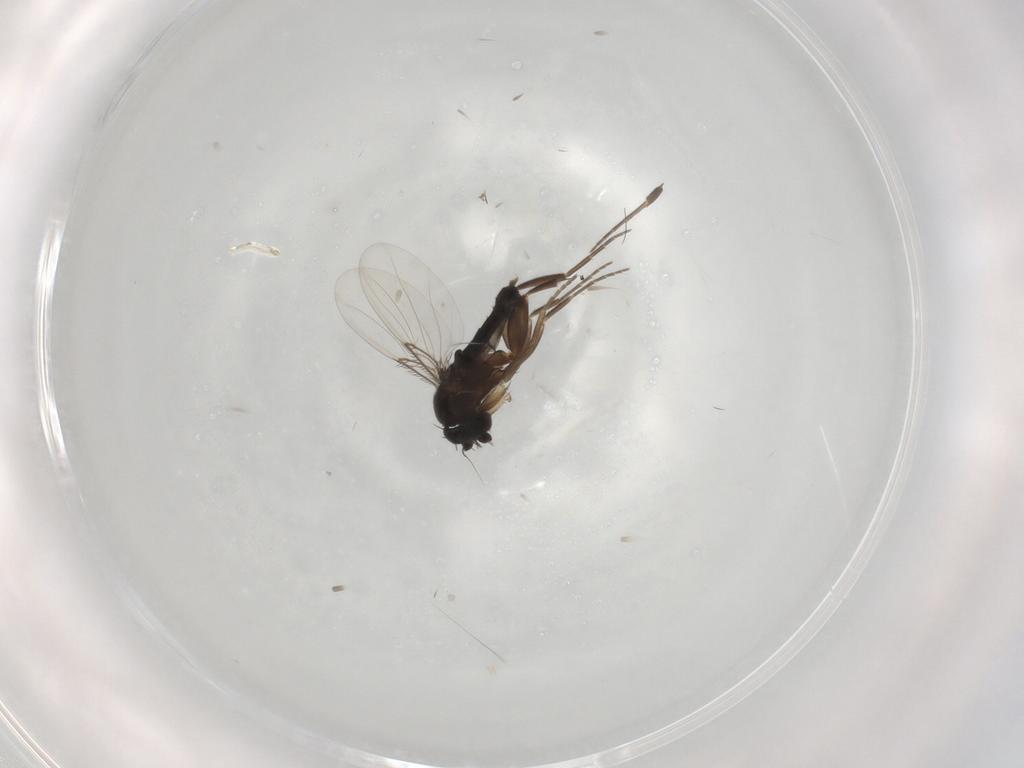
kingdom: Animalia
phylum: Arthropoda
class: Insecta
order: Diptera
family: Phoridae
